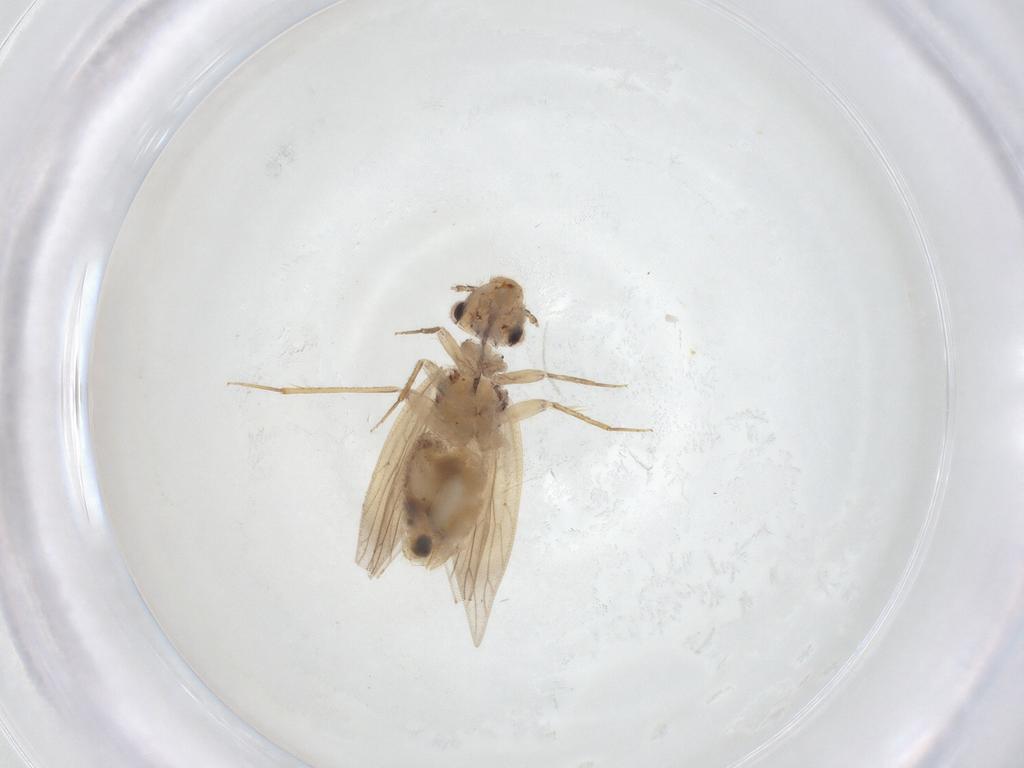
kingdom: Animalia
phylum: Arthropoda
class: Insecta
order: Psocodea
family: Lepidopsocidae
